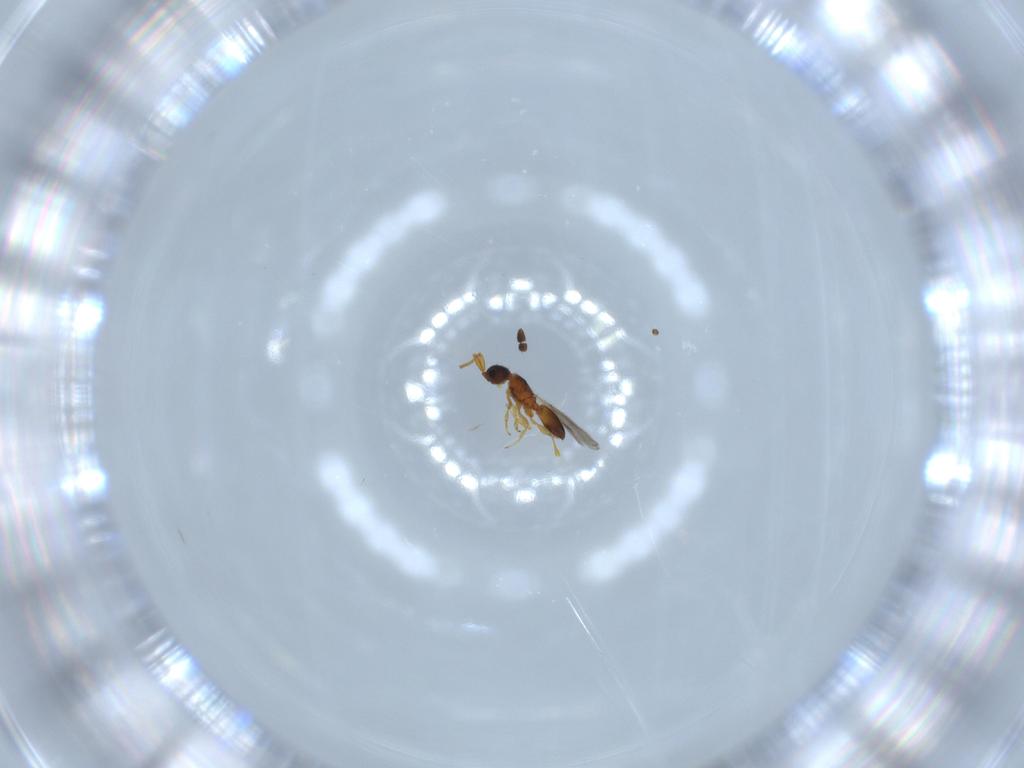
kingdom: Animalia
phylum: Arthropoda
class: Insecta
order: Hymenoptera
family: Diapriidae
